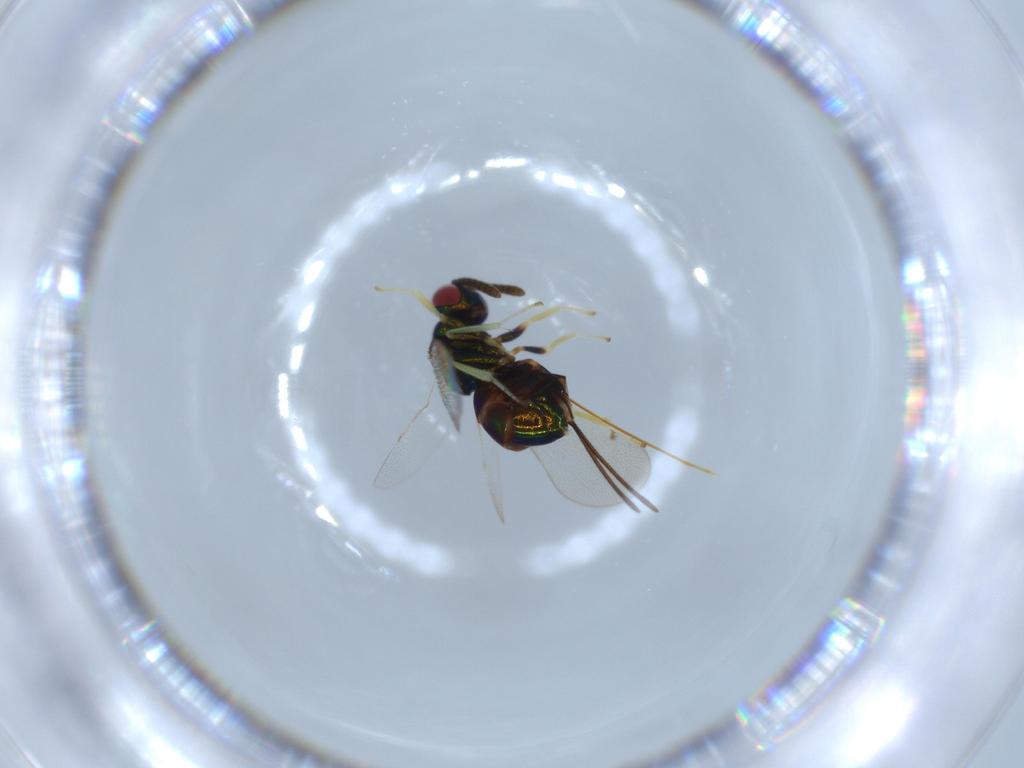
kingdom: Animalia
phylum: Arthropoda
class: Insecta
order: Hymenoptera
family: Torymidae
